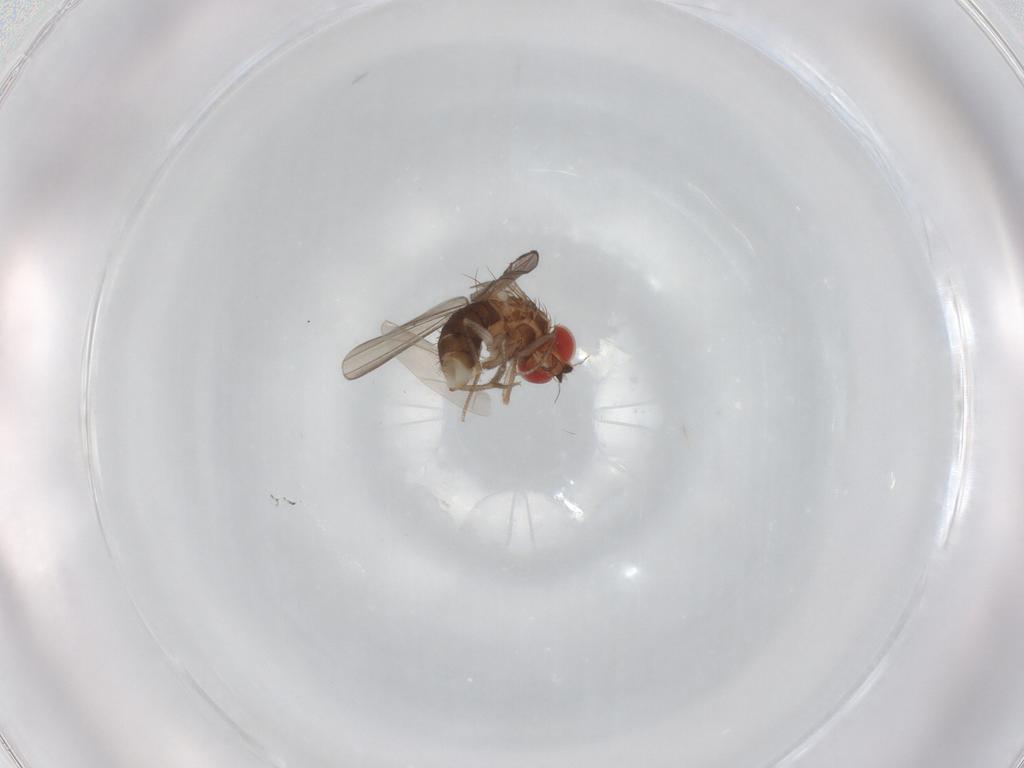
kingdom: Animalia
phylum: Arthropoda
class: Insecta
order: Diptera
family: Drosophilidae
